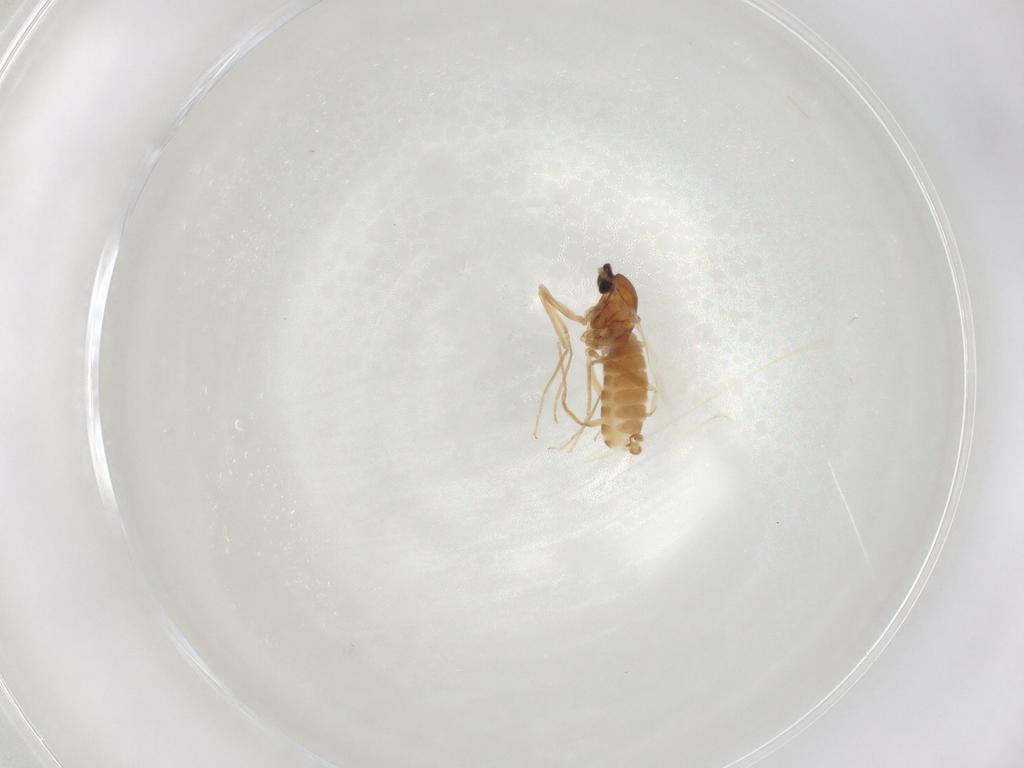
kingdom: Animalia
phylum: Arthropoda
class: Insecta
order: Diptera
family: Cecidomyiidae
